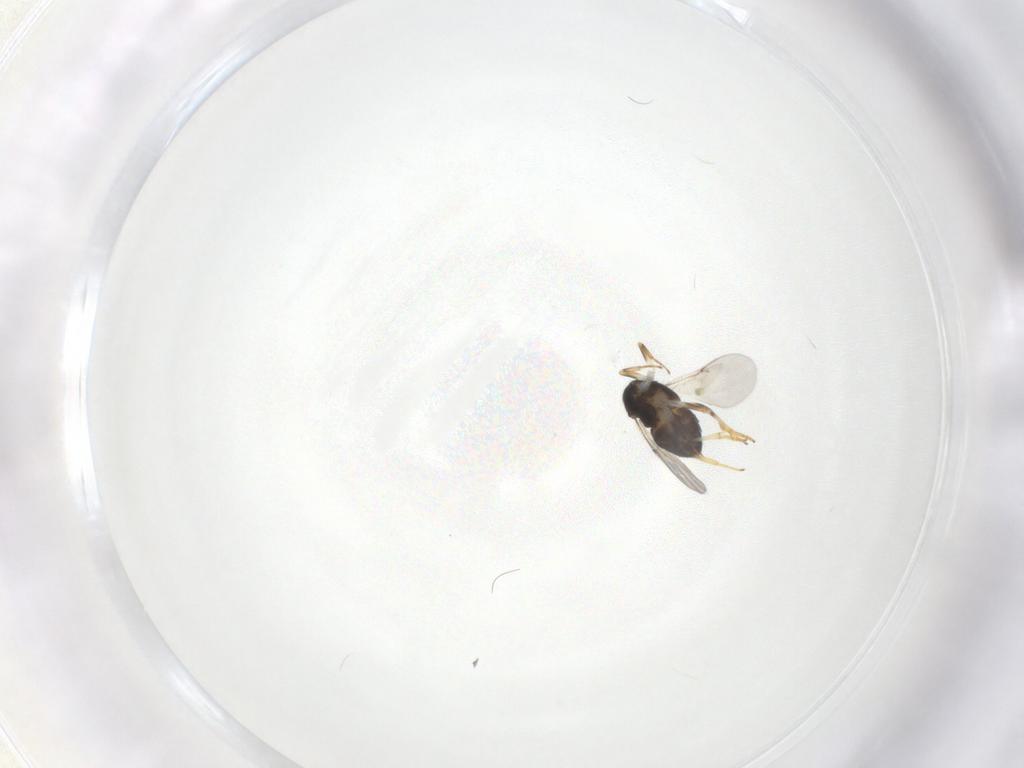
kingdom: Animalia
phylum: Arthropoda
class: Insecta
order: Hymenoptera
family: Encyrtidae
